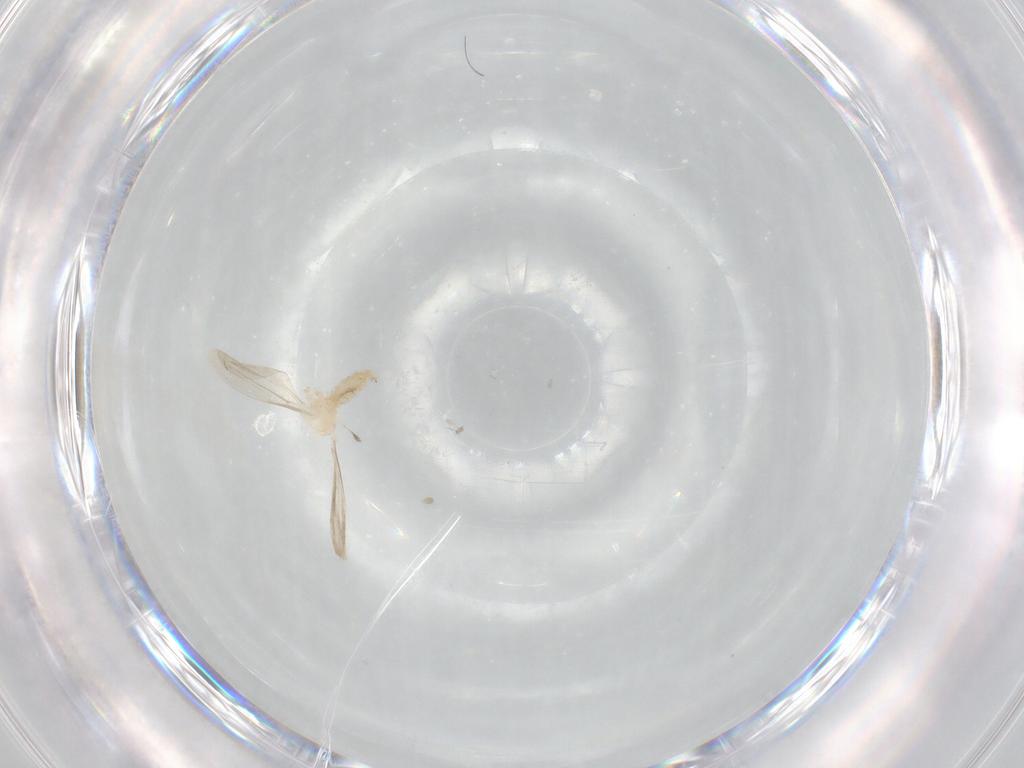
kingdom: Animalia
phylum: Arthropoda
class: Insecta
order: Diptera
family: Cecidomyiidae
